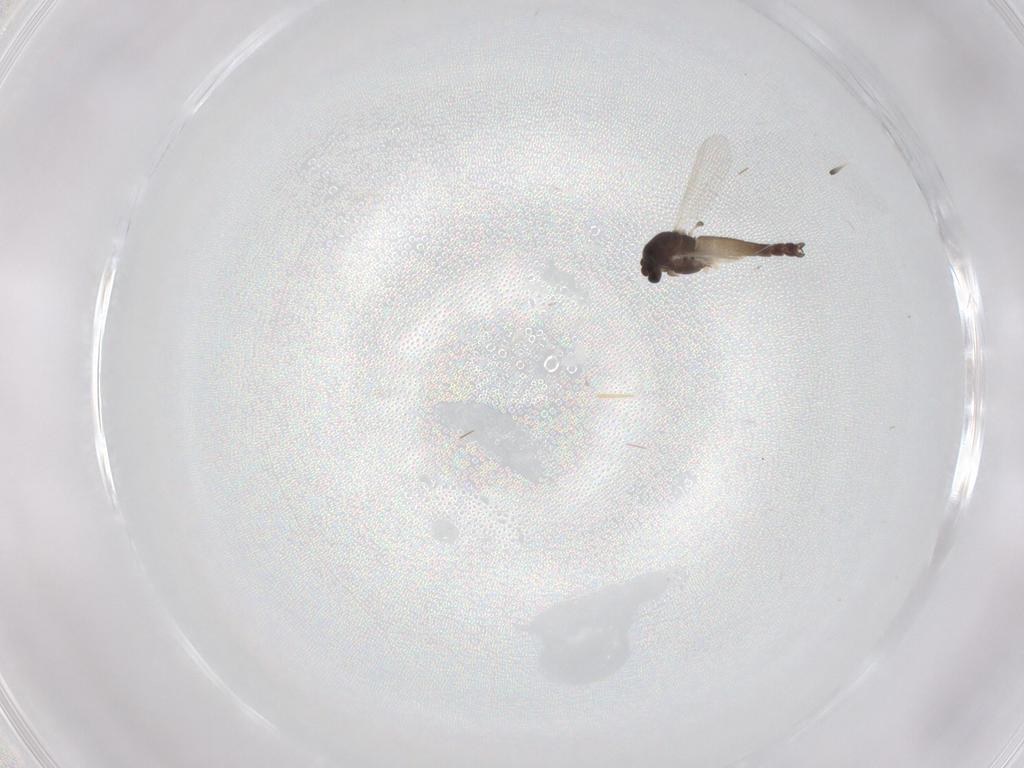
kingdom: Animalia
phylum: Arthropoda
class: Insecta
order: Diptera
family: Chironomidae
